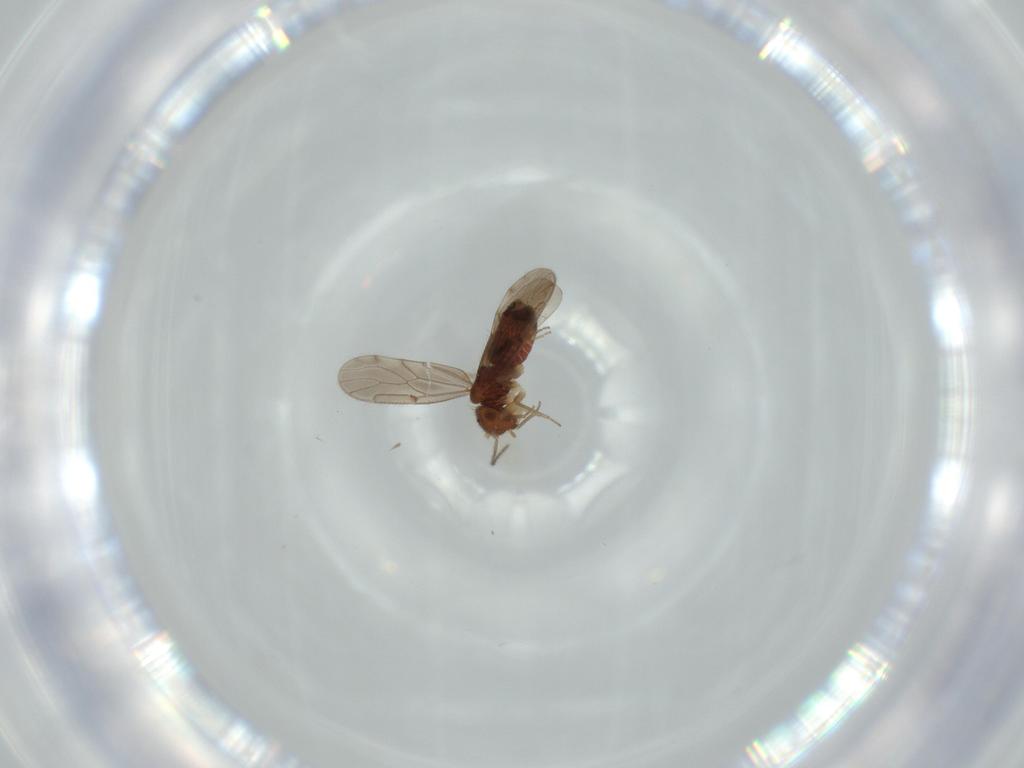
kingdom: Animalia
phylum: Arthropoda
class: Insecta
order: Psocodea
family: Ectopsocidae
